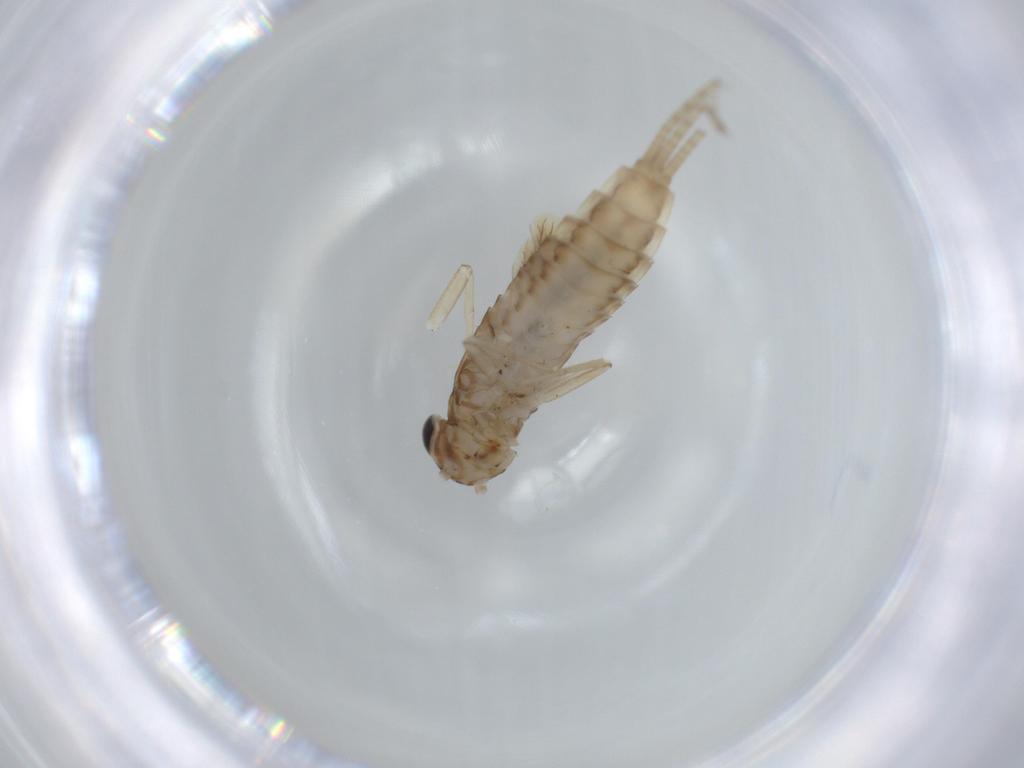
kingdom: Animalia
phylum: Arthropoda
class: Insecta
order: Ephemeroptera
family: Caenidae
